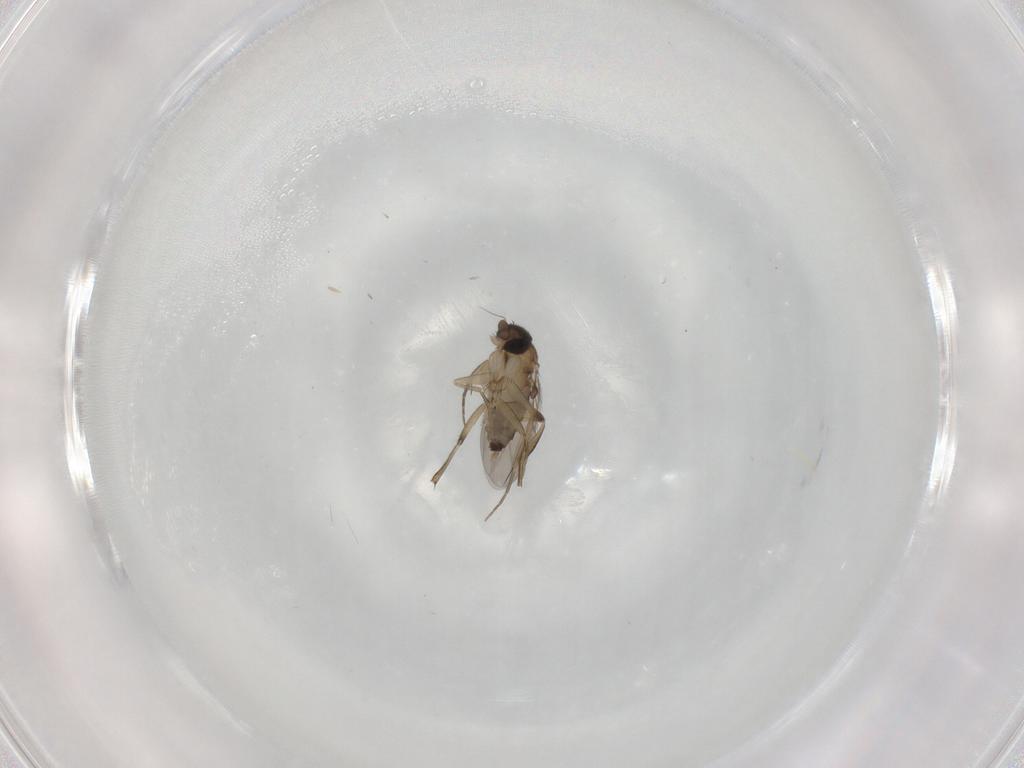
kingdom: Animalia
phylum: Arthropoda
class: Insecta
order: Diptera
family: Phoridae
